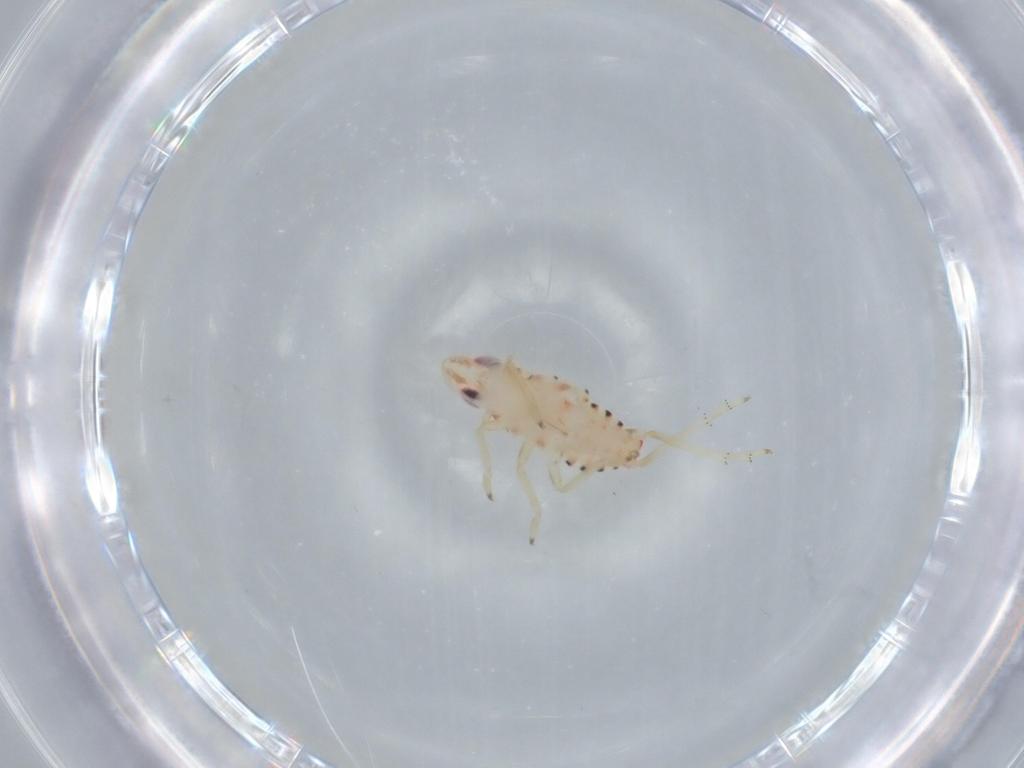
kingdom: Animalia
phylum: Arthropoda
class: Insecta
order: Hemiptera
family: Tropiduchidae
